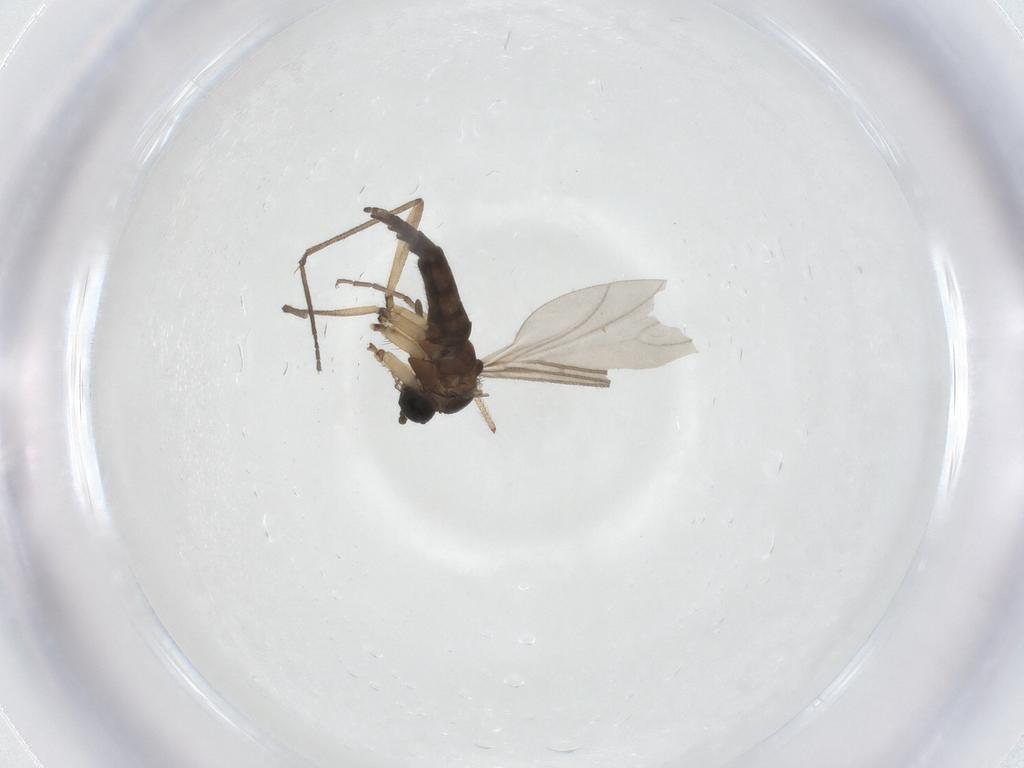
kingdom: Animalia
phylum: Arthropoda
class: Insecta
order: Diptera
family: Sciaridae
